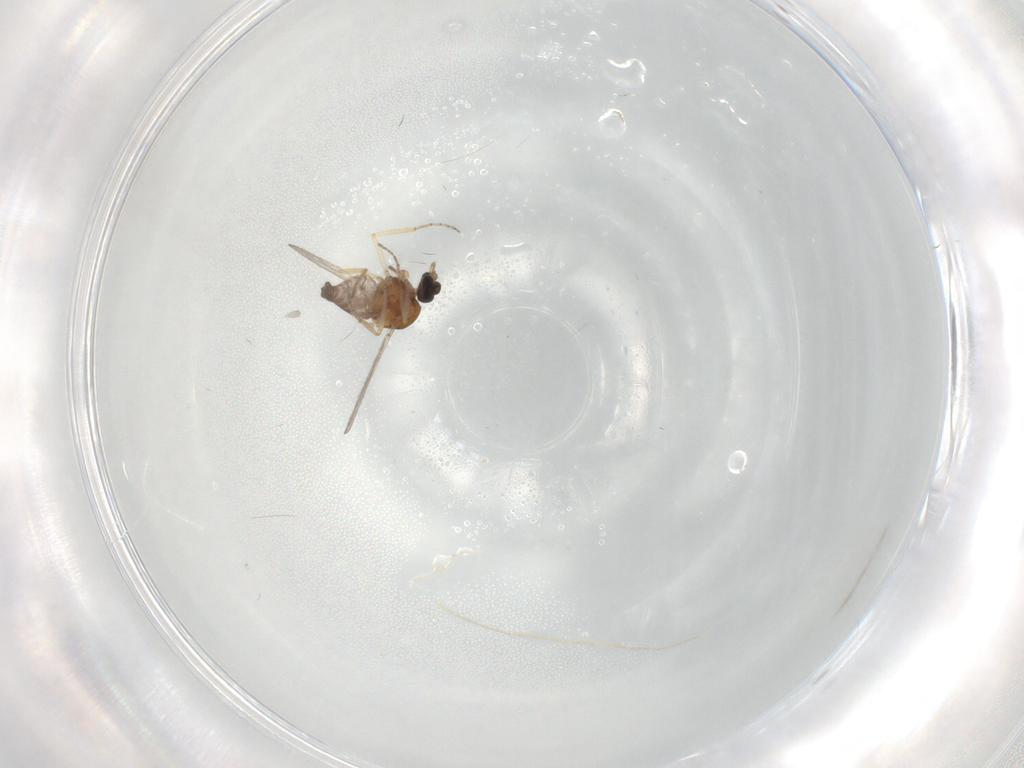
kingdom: Animalia
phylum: Arthropoda
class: Insecta
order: Diptera
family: Ceratopogonidae
